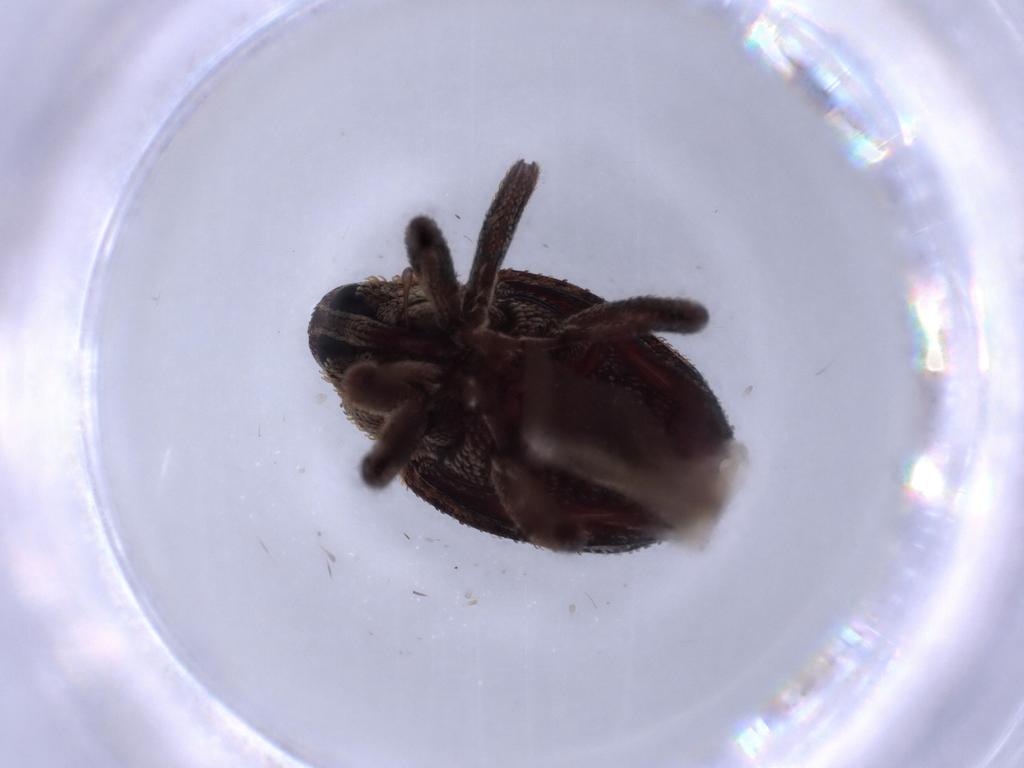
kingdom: Animalia
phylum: Arthropoda
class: Insecta
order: Coleoptera
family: Curculionidae
